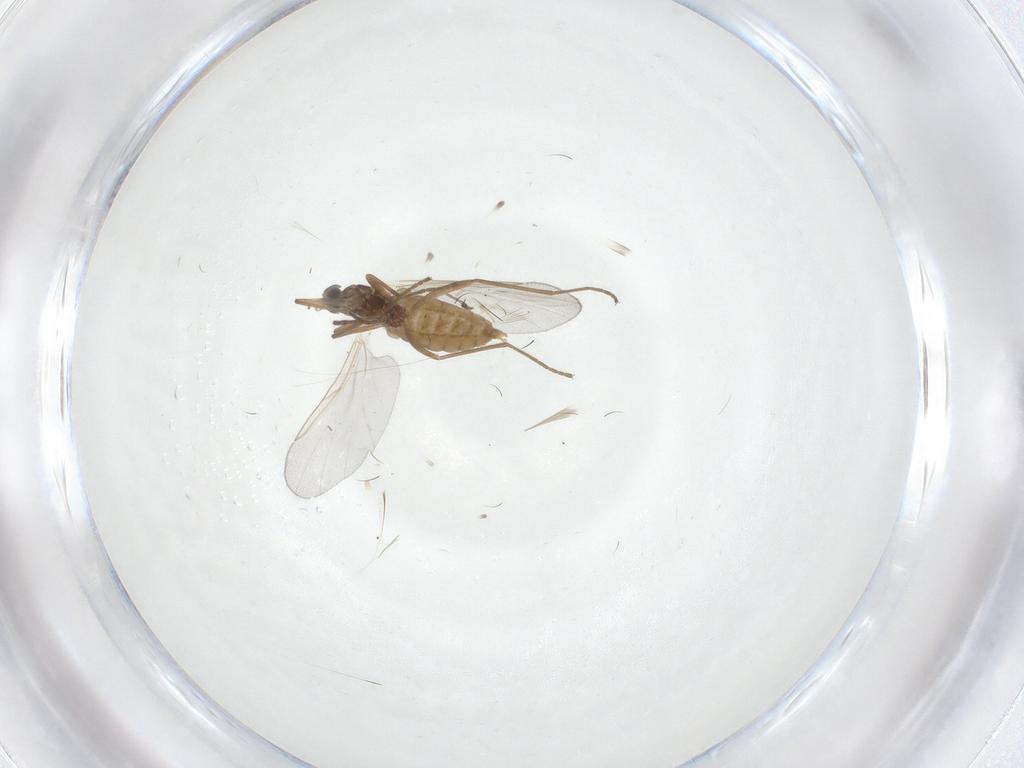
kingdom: Animalia
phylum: Arthropoda
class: Insecta
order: Diptera
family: Cecidomyiidae
